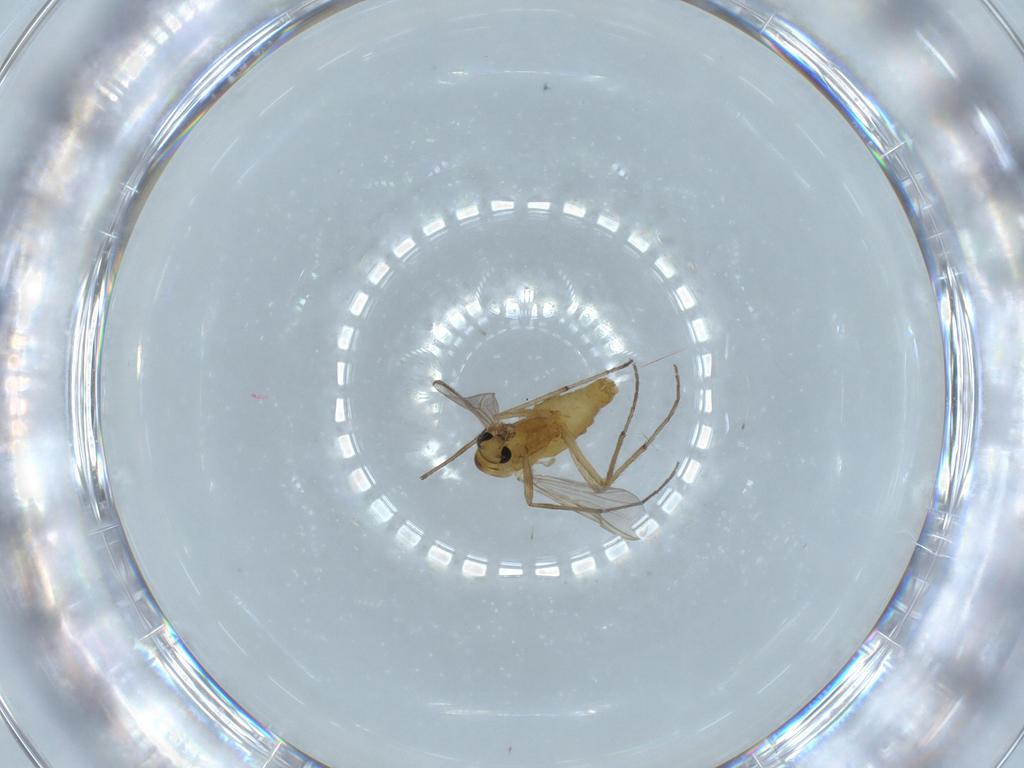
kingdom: Animalia
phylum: Arthropoda
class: Insecta
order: Diptera
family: Chironomidae
